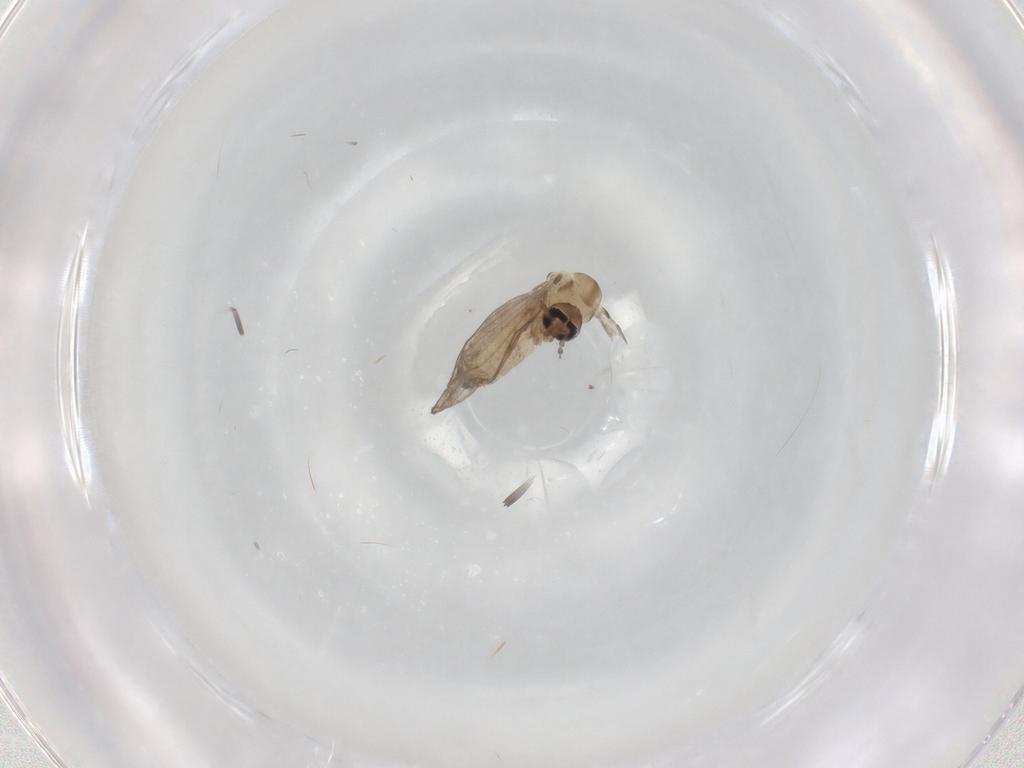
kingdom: Animalia
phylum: Arthropoda
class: Insecta
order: Diptera
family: Psychodidae
